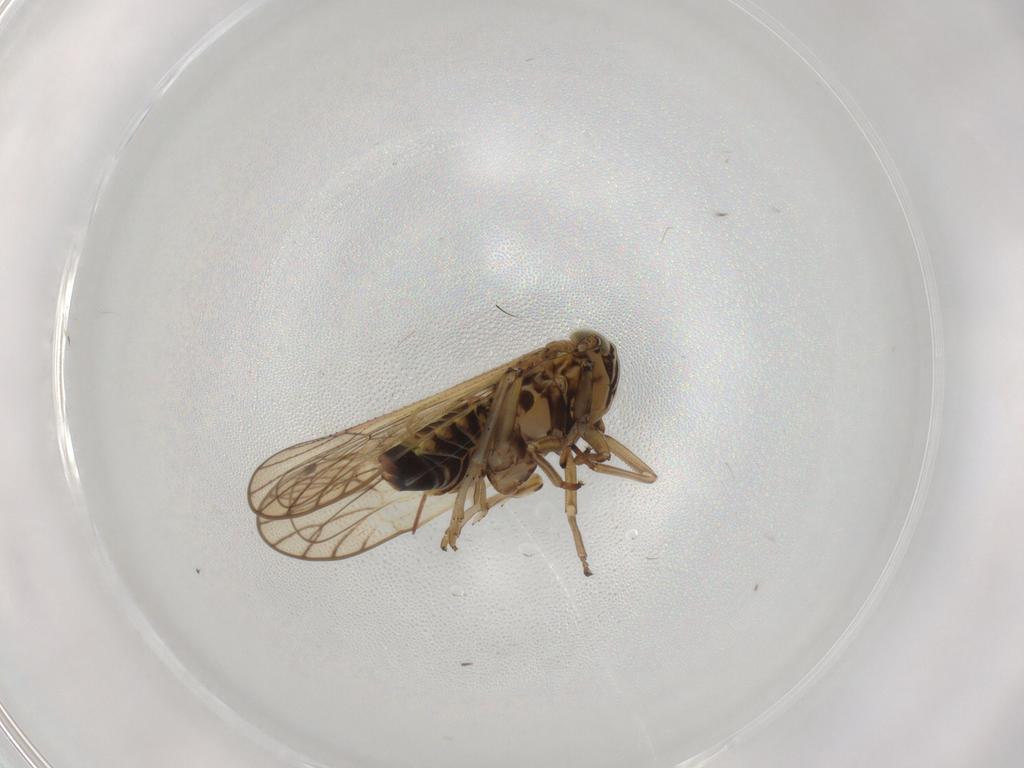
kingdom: Animalia
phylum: Arthropoda
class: Insecta
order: Hemiptera
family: Delphacidae
